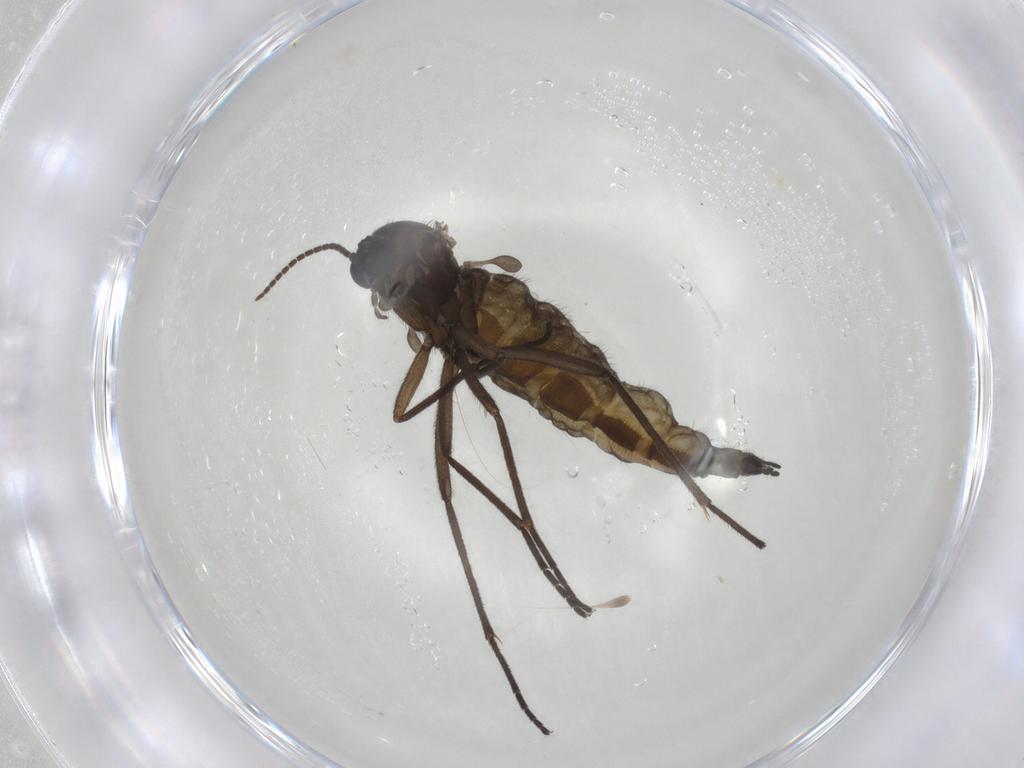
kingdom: Animalia
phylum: Arthropoda
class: Insecta
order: Diptera
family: Sciaridae
